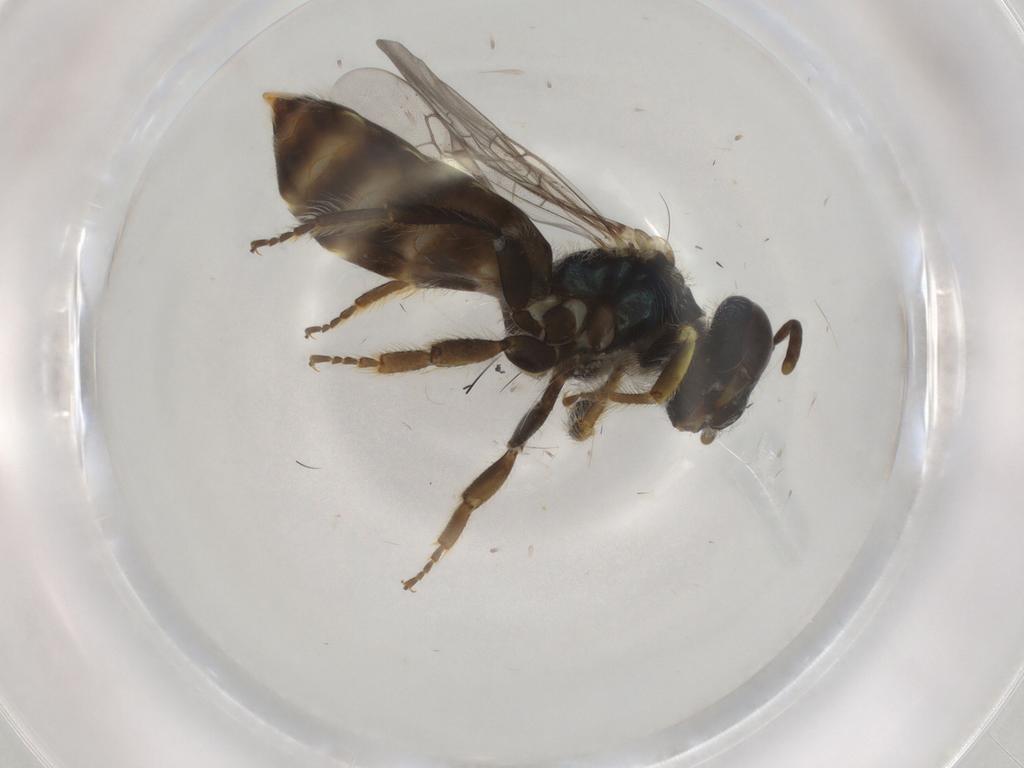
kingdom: Animalia
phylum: Arthropoda
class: Insecta
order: Hymenoptera
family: Andrenidae
